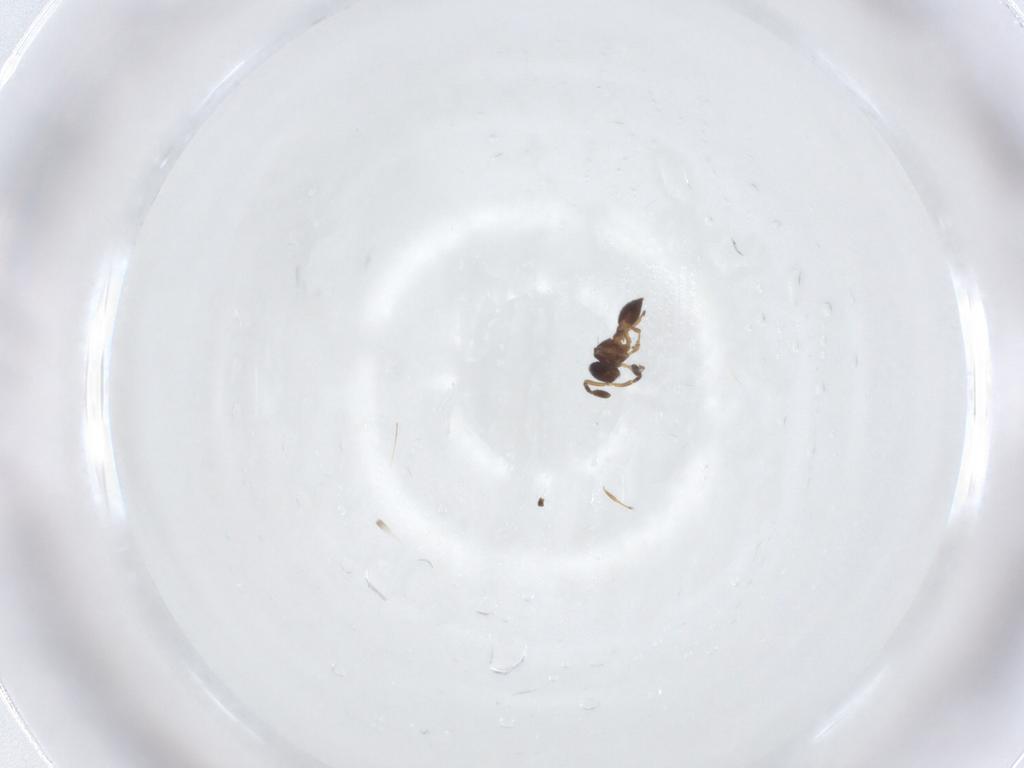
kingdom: Animalia
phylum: Arthropoda
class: Insecta
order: Hymenoptera
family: Scelionidae
